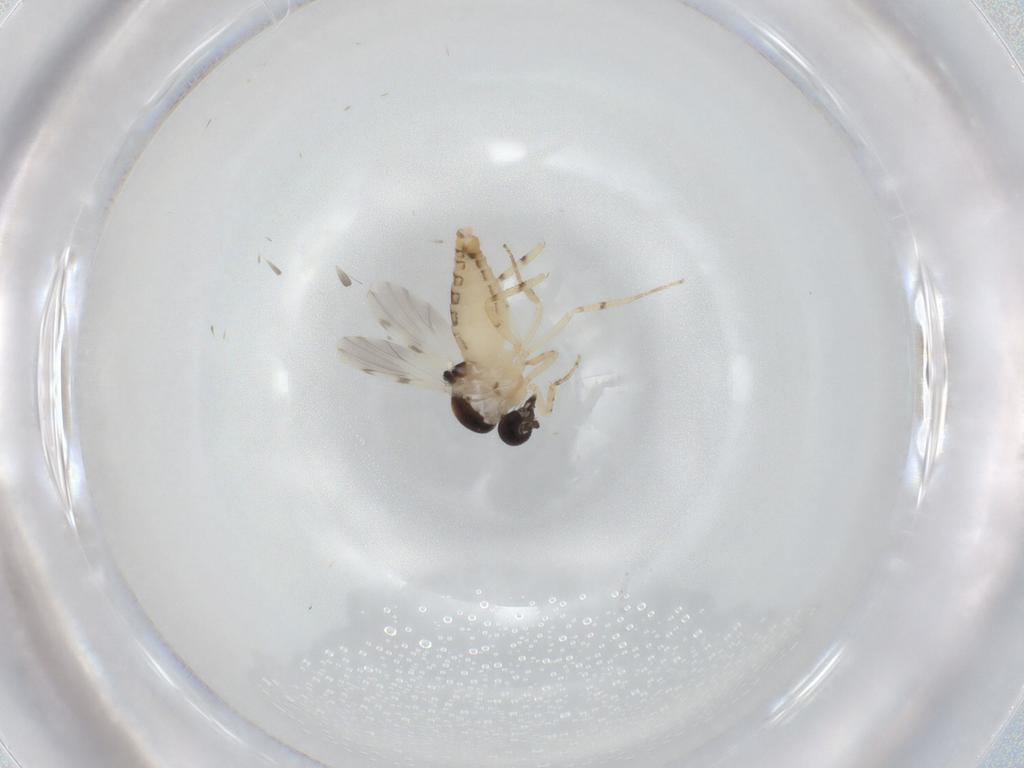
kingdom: Animalia
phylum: Arthropoda
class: Insecta
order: Diptera
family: Ceratopogonidae
